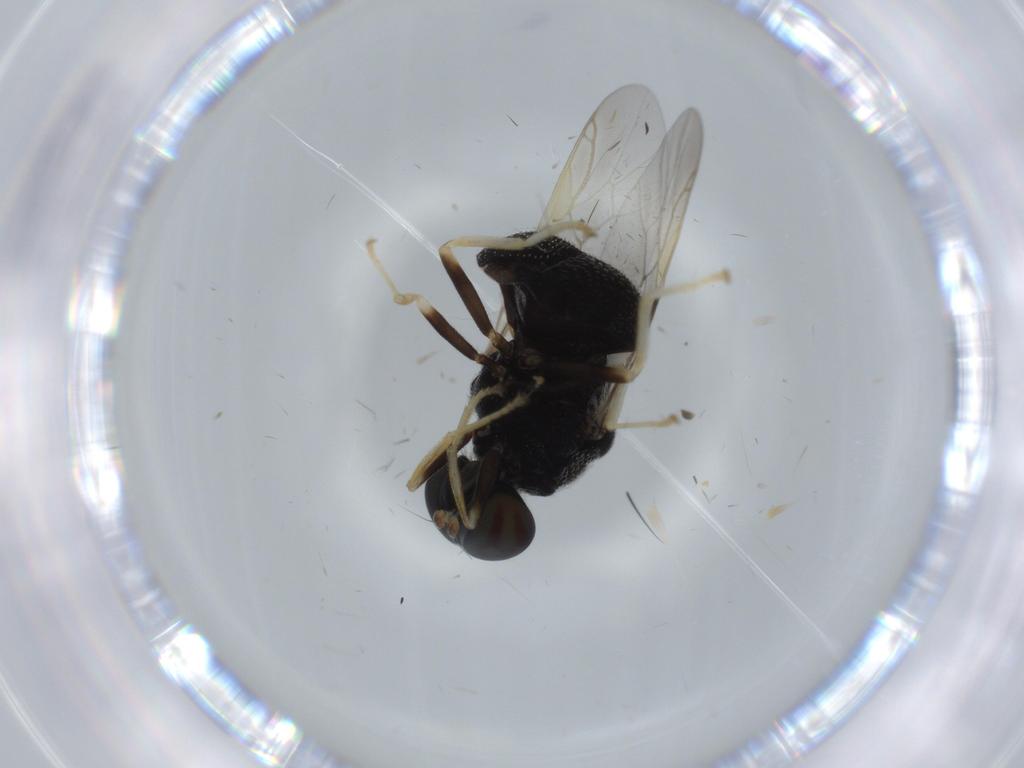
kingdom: Animalia
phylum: Arthropoda
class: Insecta
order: Diptera
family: Stratiomyidae
